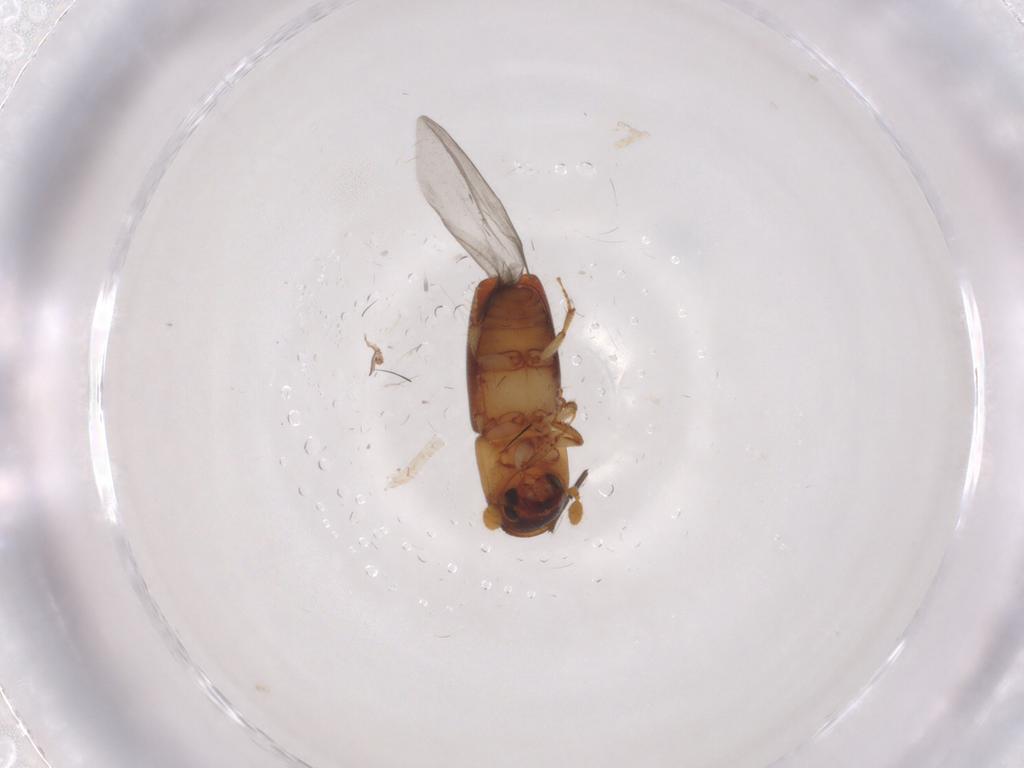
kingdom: Animalia
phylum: Arthropoda
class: Insecta
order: Coleoptera
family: Curculionidae
